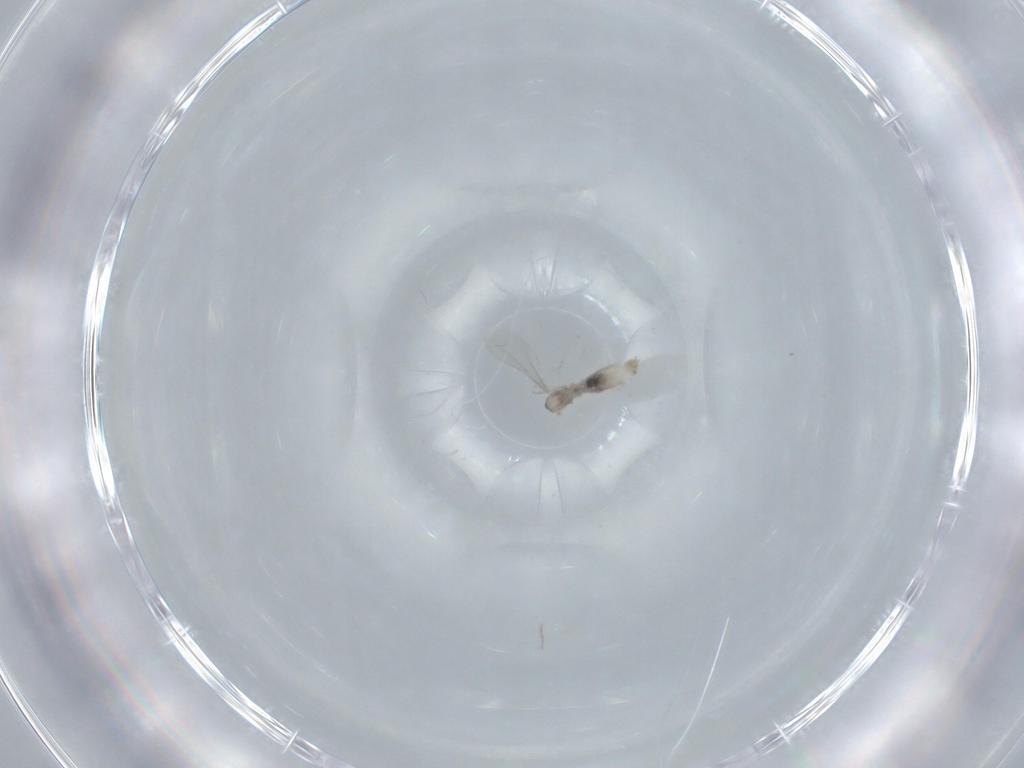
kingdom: Animalia
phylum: Arthropoda
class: Insecta
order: Diptera
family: Cecidomyiidae
